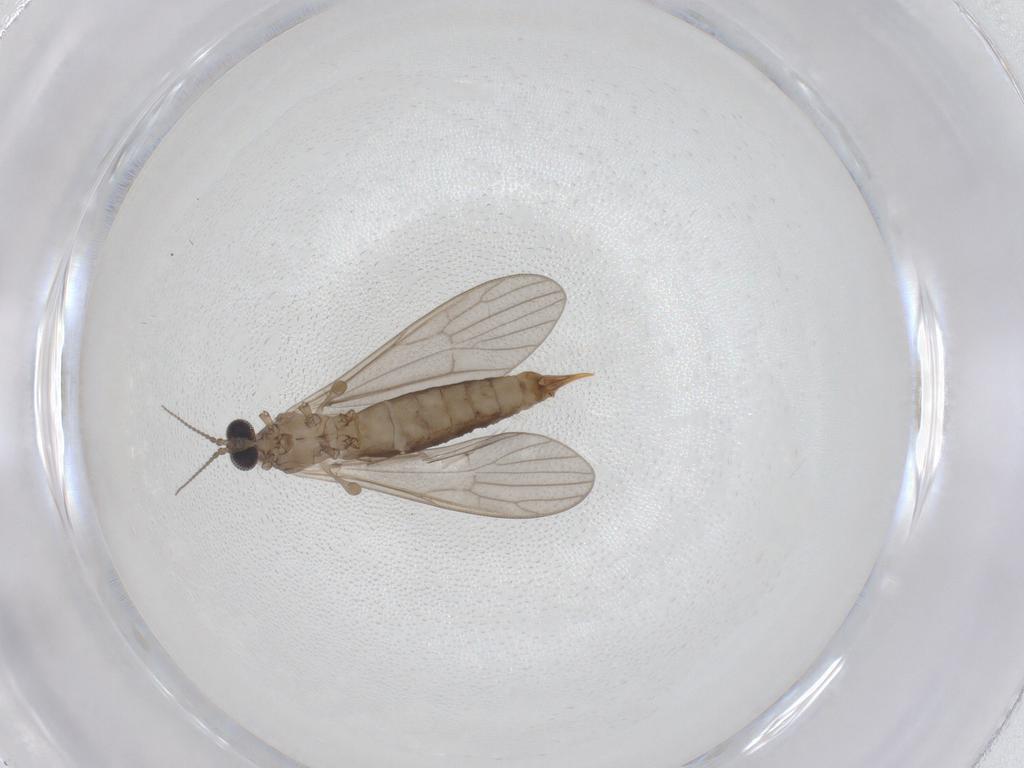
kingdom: Animalia
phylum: Arthropoda
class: Insecta
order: Diptera
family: Limoniidae
